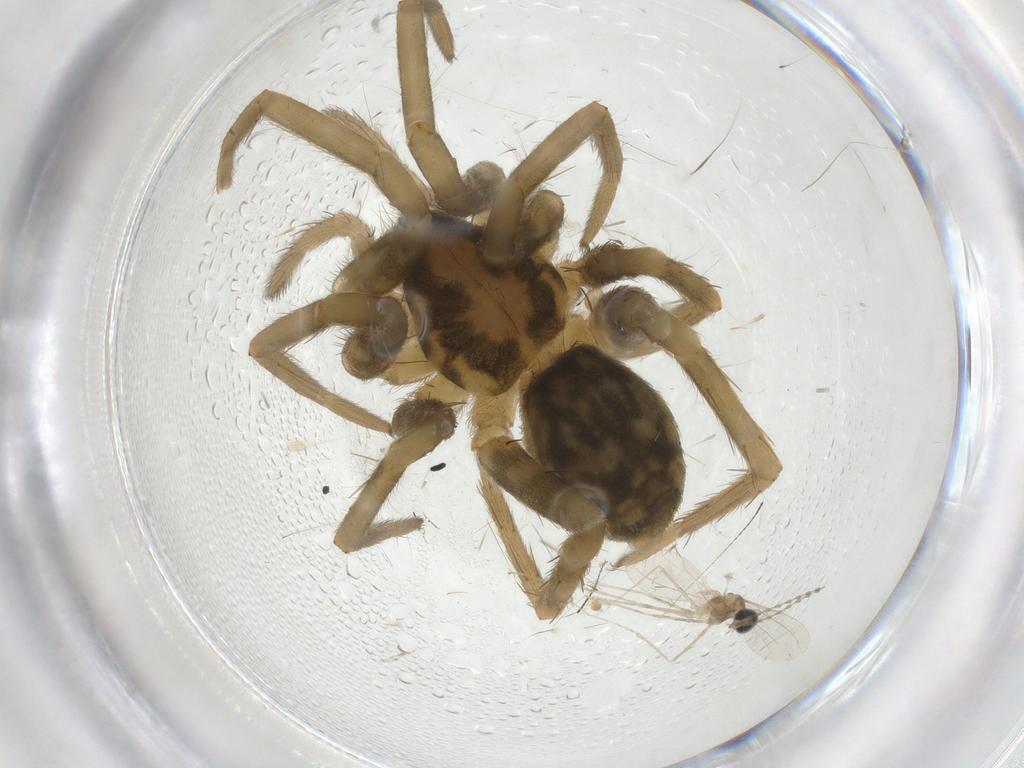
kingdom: Animalia
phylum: Arthropoda
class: Arachnida
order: Araneae
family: Agelenidae
